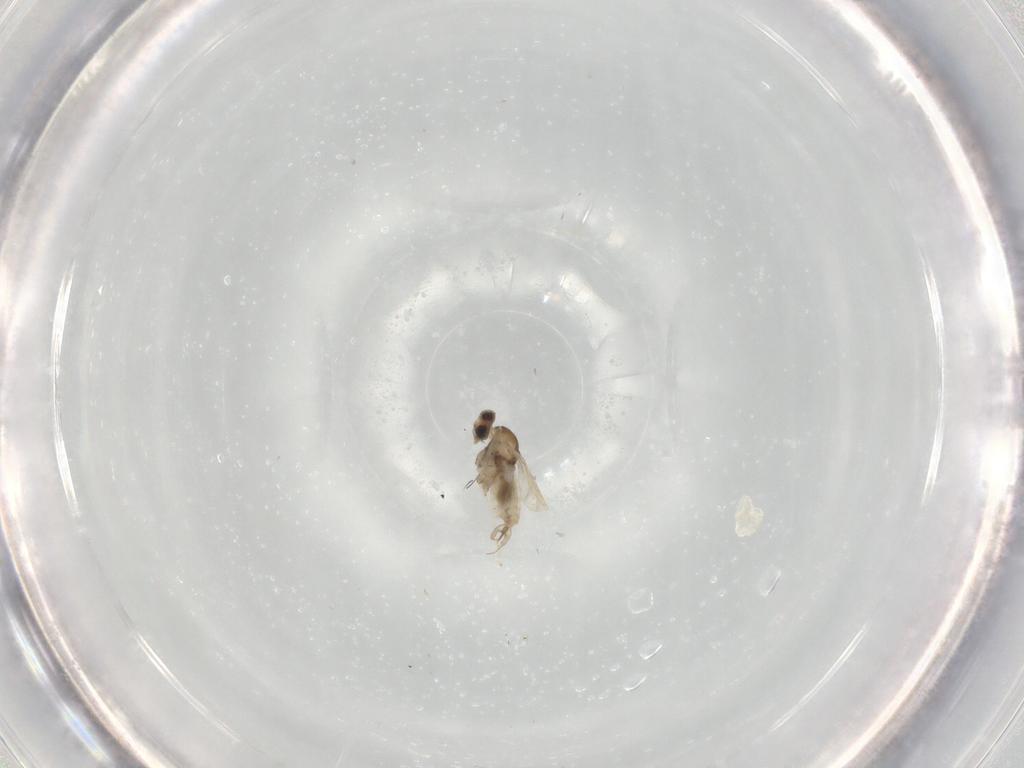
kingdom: Animalia
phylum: Arthropoda
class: Insecta
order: Diptera
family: Cecidomyiidae
